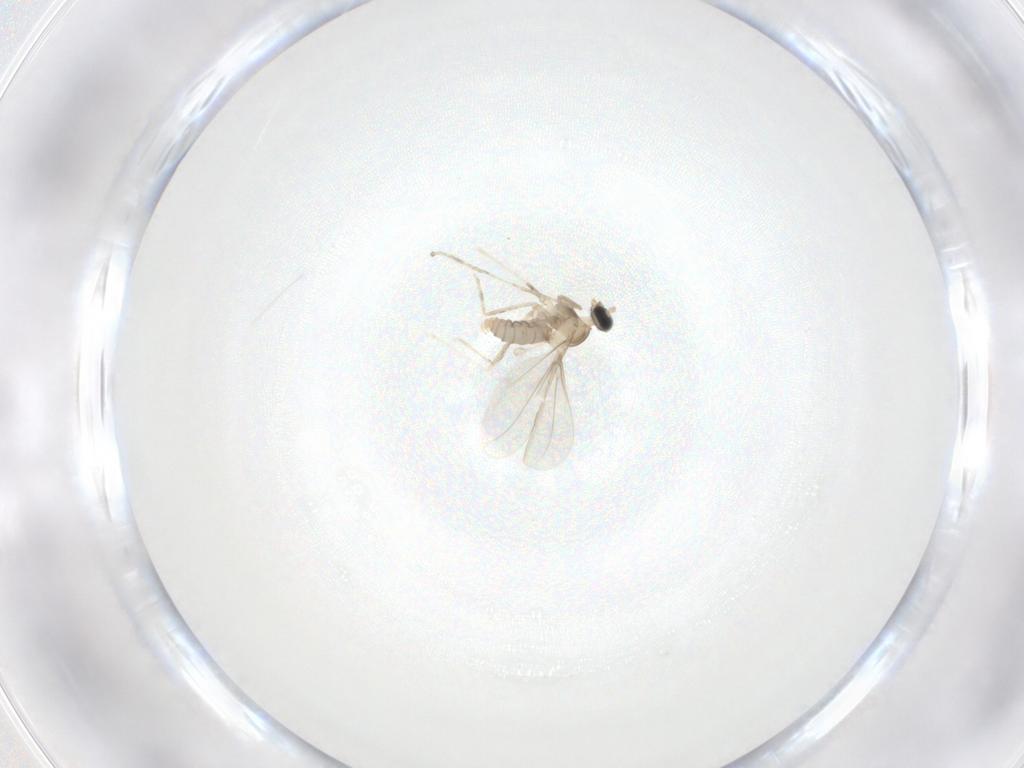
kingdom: Animalia
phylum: Arthropoda
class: Insecta
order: Diptera
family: Cecidomyiidae
